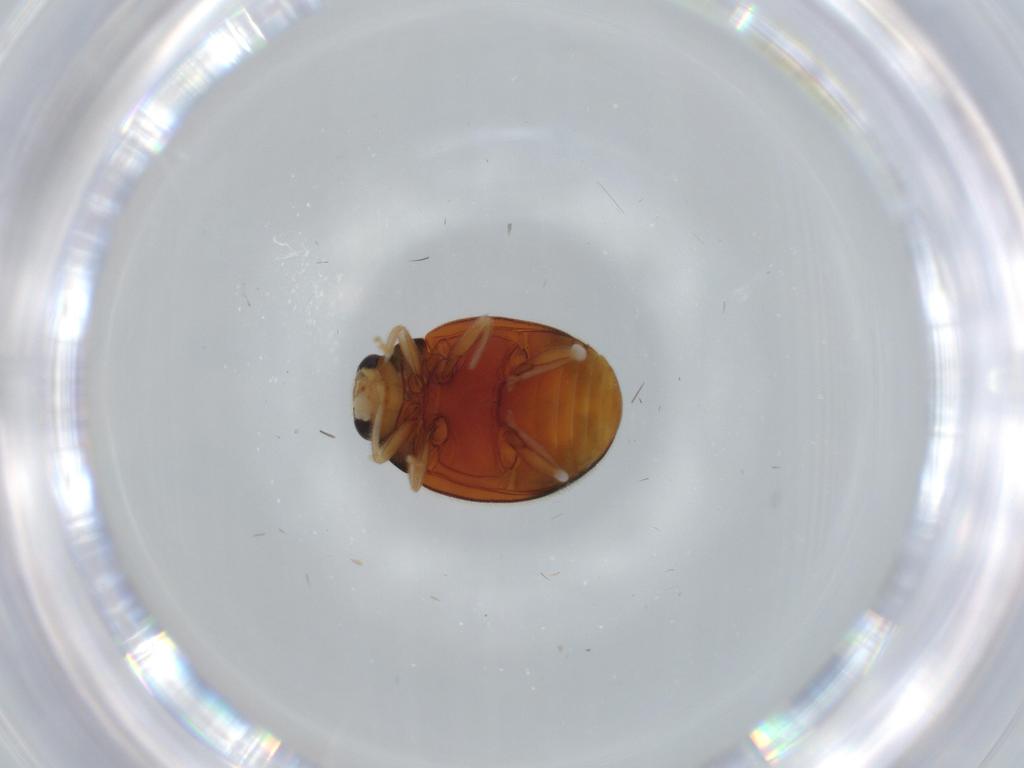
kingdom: Animalia
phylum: Arthropoda
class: Insecta
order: Coleoptera
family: Coccinellidae
